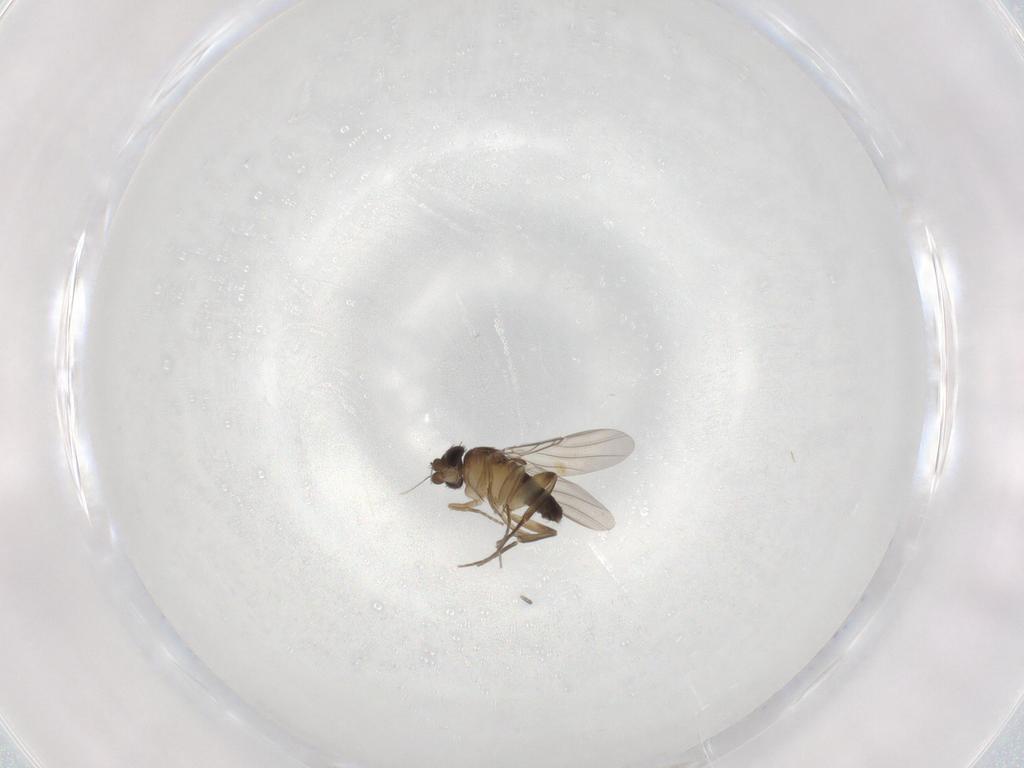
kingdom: Animalia
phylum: Arthropoda
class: Insecta
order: Diptera
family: Phoridae
